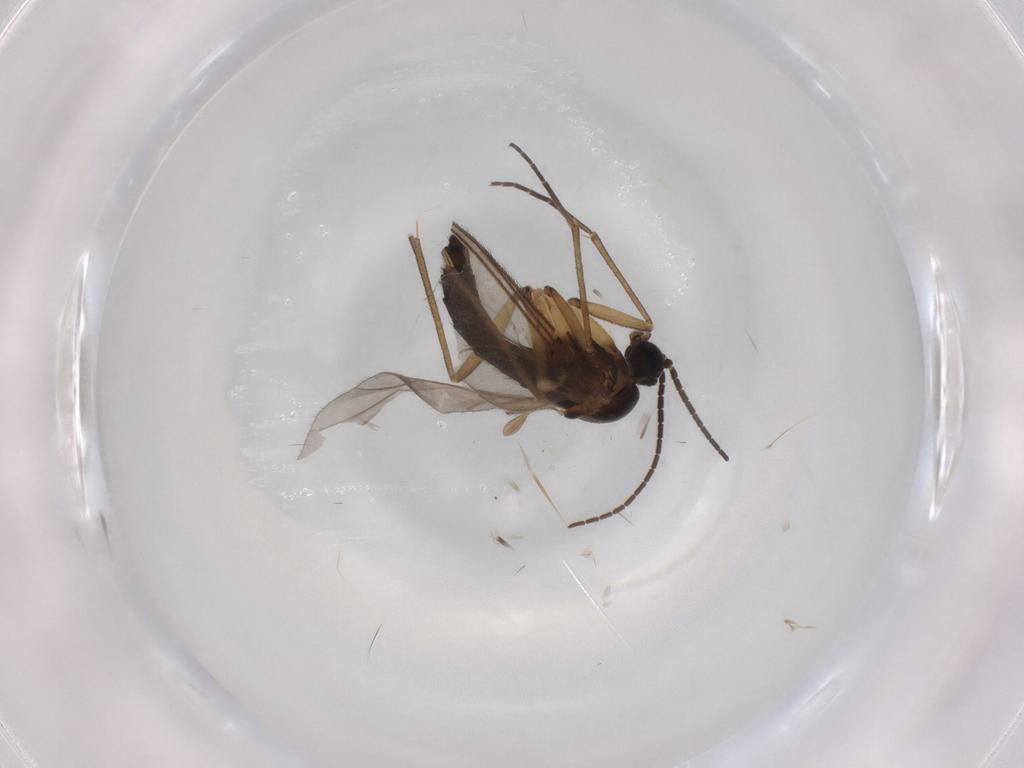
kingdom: Animalia
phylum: Arthropoda
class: Insecta
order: Diptera
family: Sciaridae
